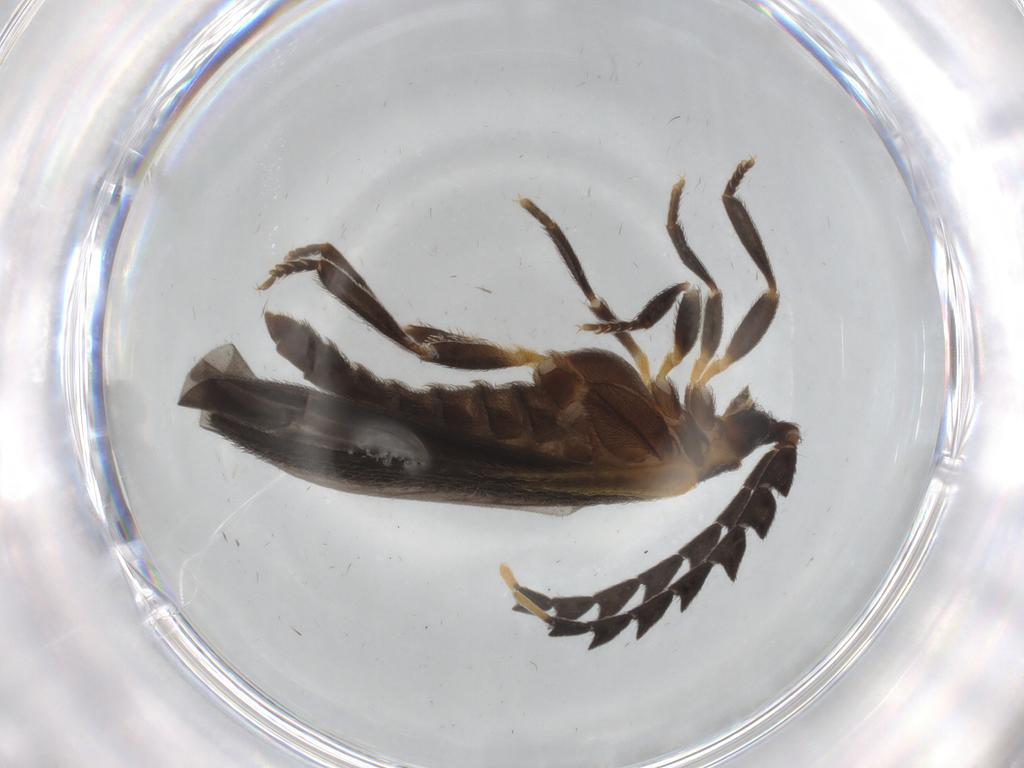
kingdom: Animalia
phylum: Arthropoda
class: Insecta
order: Coleoptera
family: Lycidae
